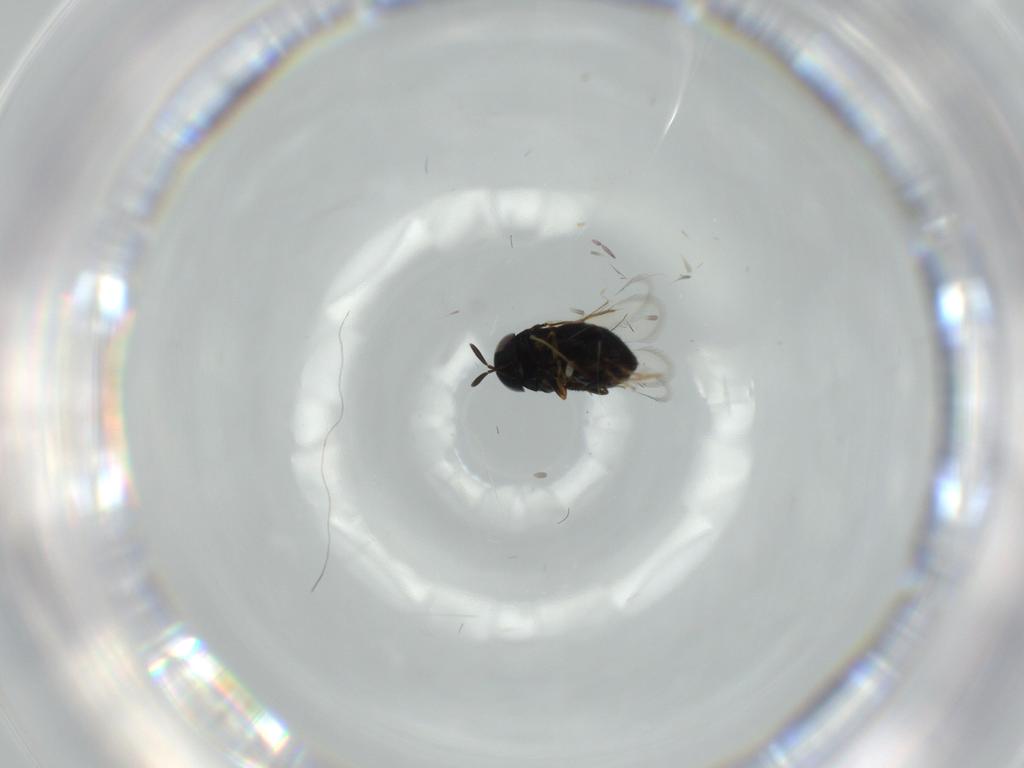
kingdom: Animalia
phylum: Arthropoda
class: Insecta
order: Hymenoptera
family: Signiphoridae
